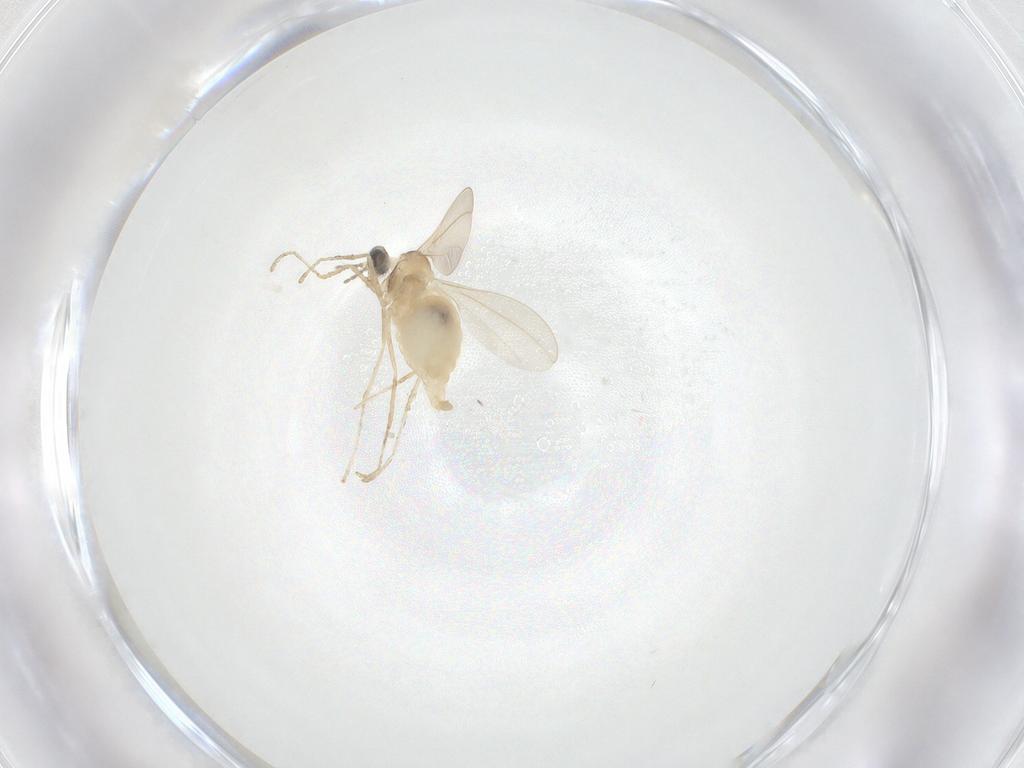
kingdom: Animalia
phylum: Arthropoda
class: Insecta
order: Diptera
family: Cecidomyiidae
